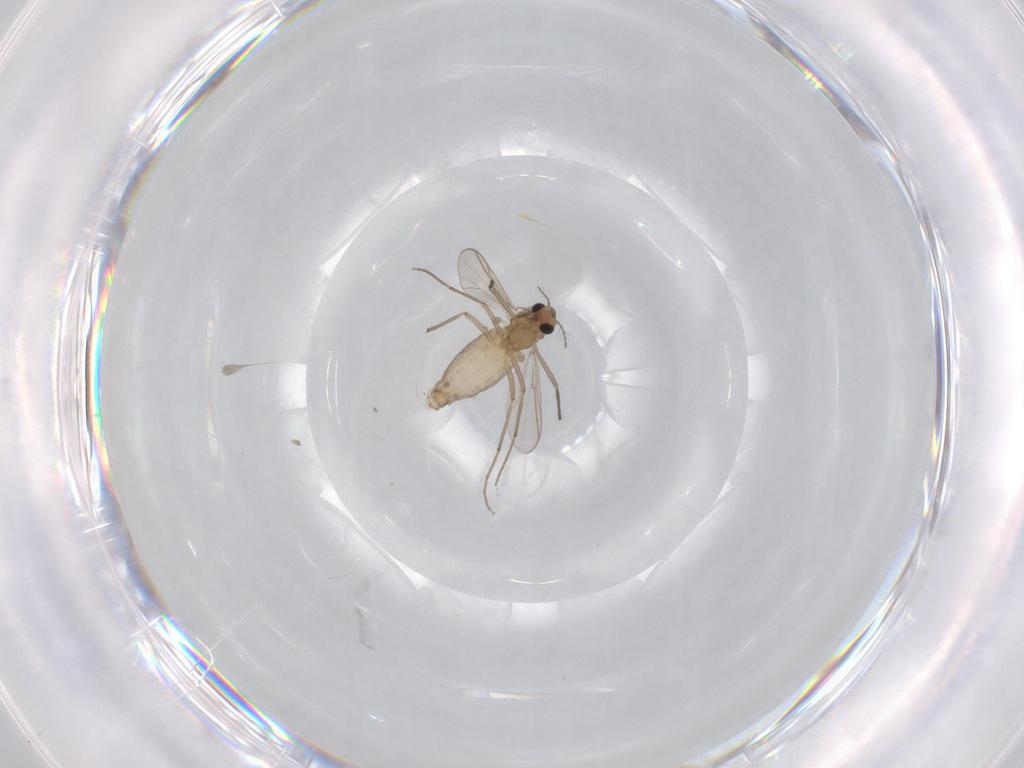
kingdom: Animalia
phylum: Arthropoda
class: Insecta
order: Diptera
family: Chironomidae
